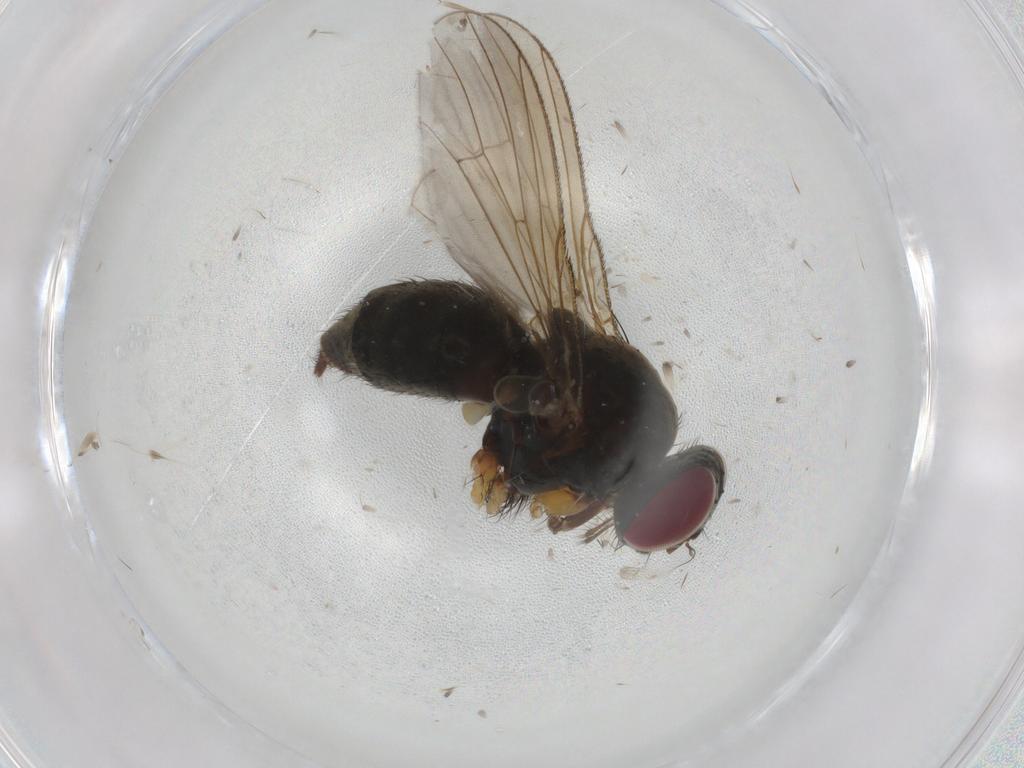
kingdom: Animalia
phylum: Arthropoda
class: Insecta
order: Diptera
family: Muscidae
